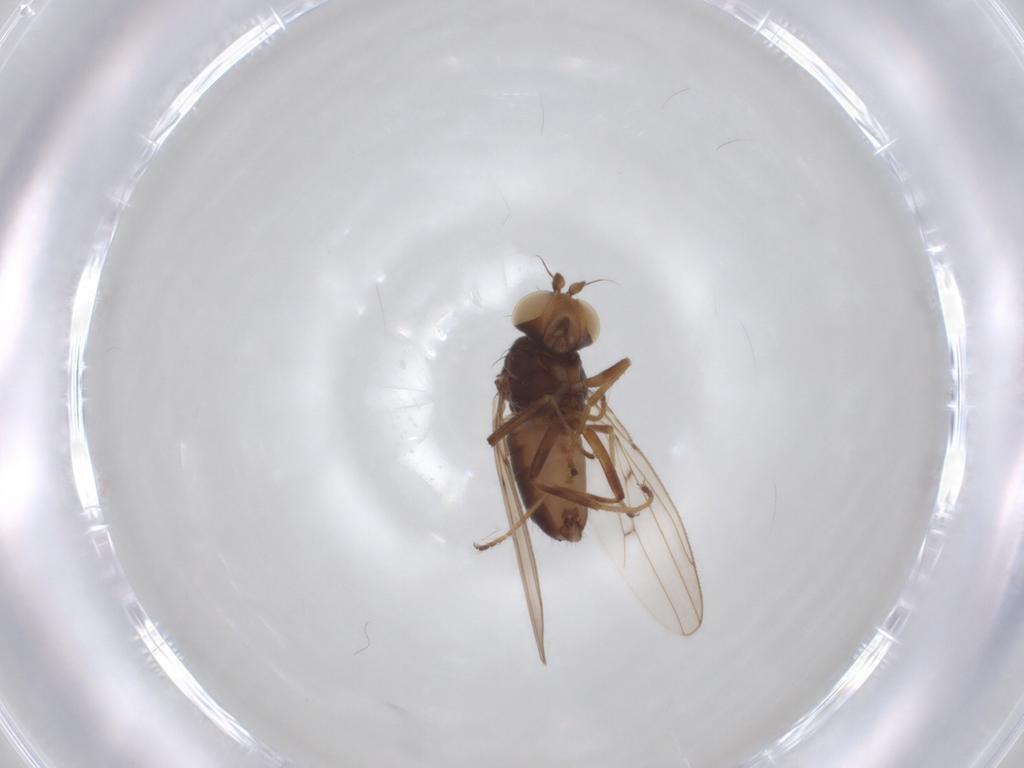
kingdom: Animalia
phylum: Arthropoda
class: Insecta
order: Diptera
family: Ephydridae
